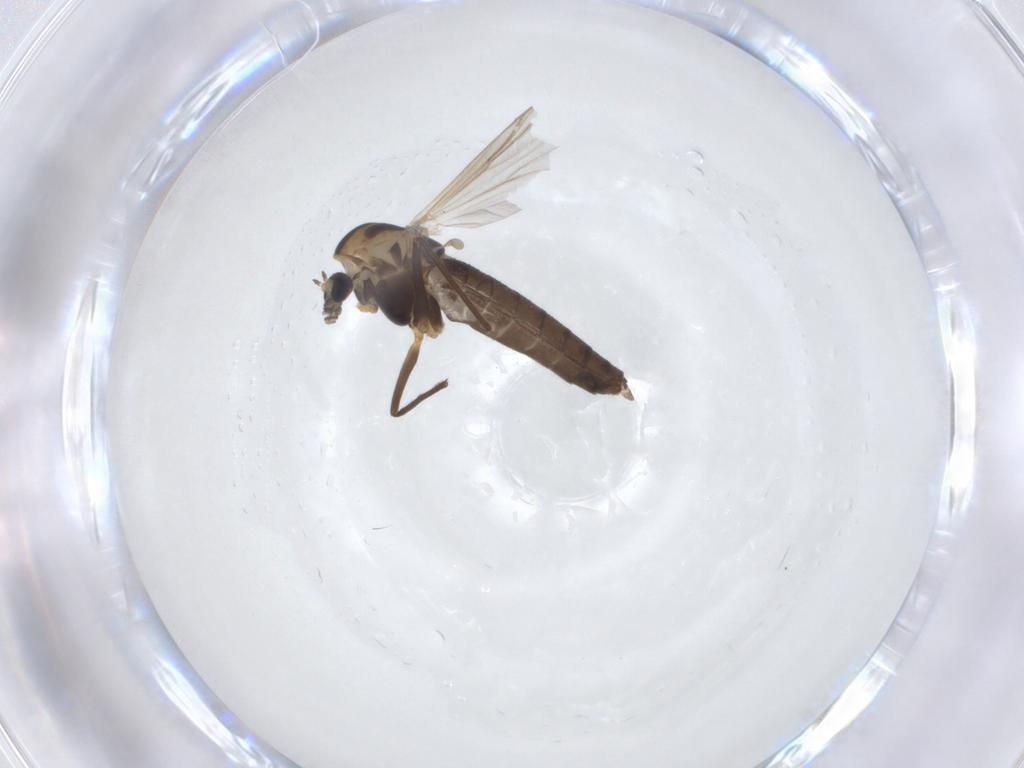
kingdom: Animalia
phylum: Arthropoda
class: Insecta
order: Diptera
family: Chironomidae
